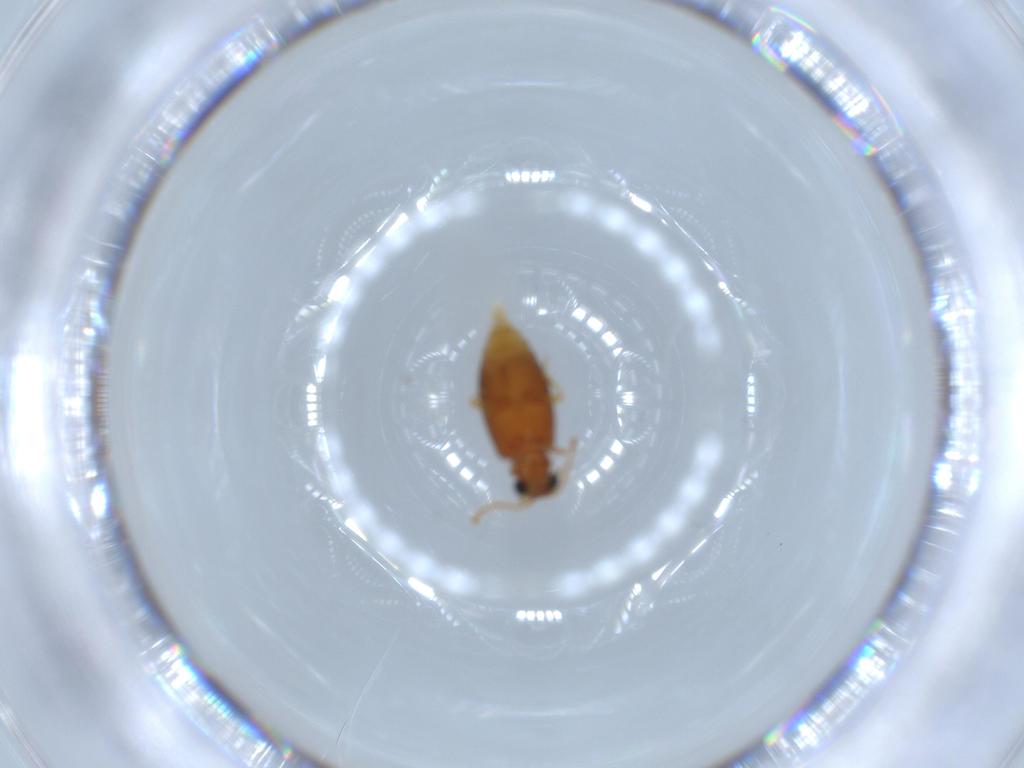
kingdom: Animalia
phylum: Arthropoda
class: Insecta
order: Coleoptera
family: Aderidae
